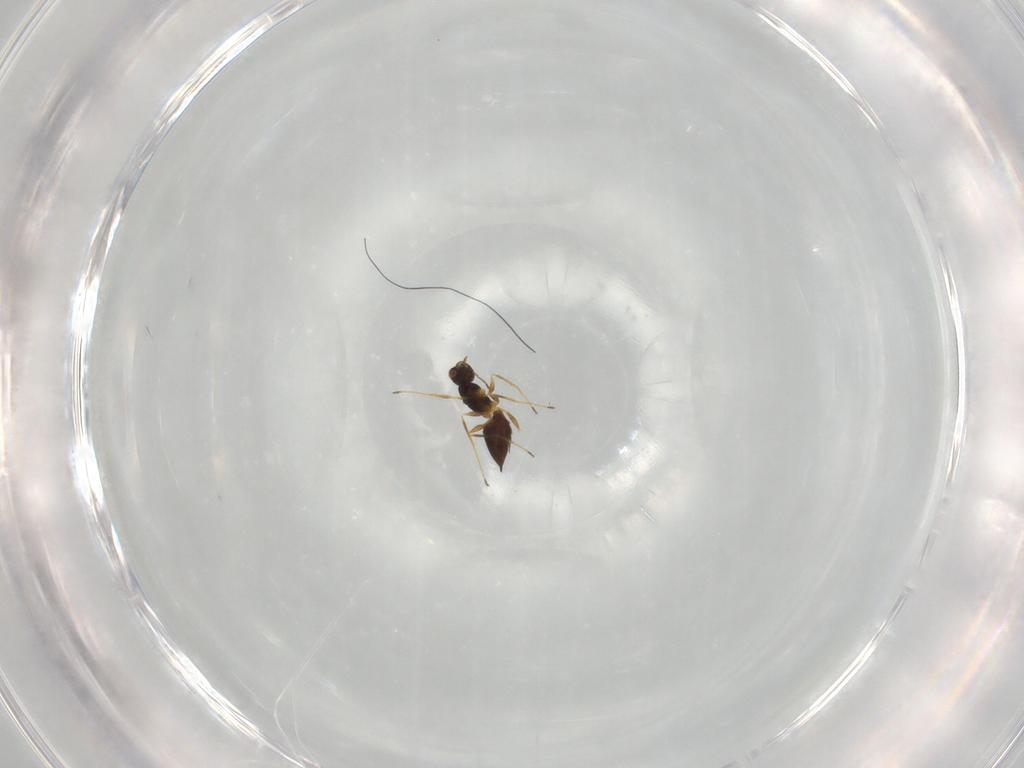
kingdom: Animalia
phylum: Arthropoda
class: Insecta
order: Hymenoptera
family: Mymaridae
